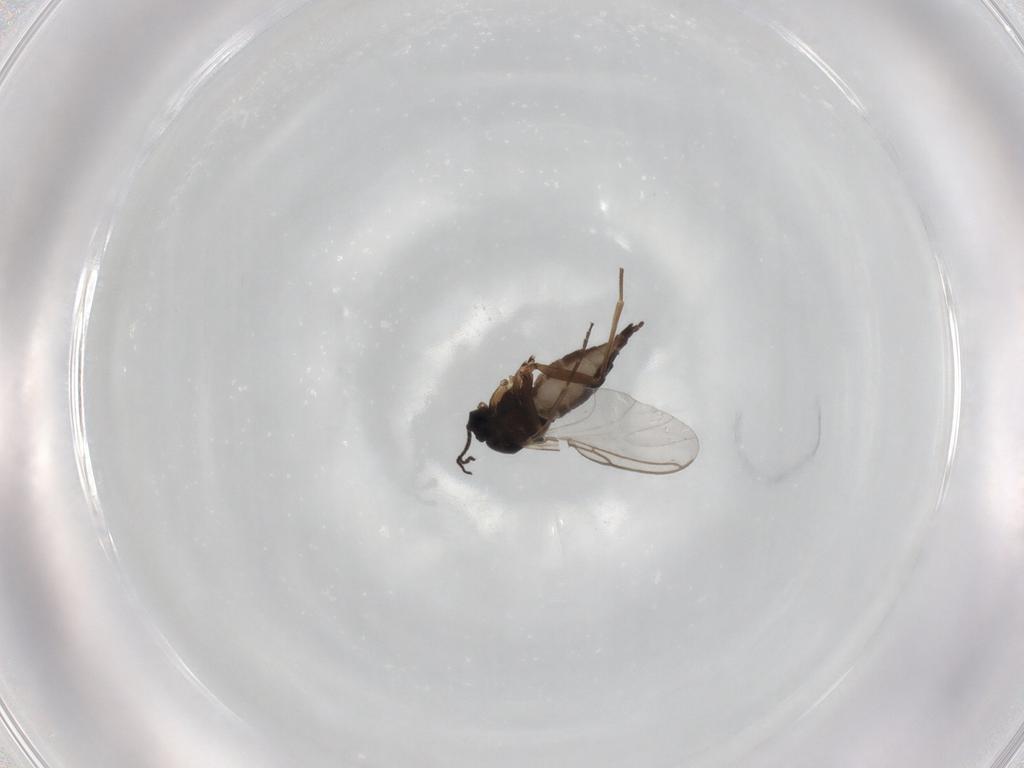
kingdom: Animalia
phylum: Arthropoda
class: Insecta
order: Diptera
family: Sciaridae
